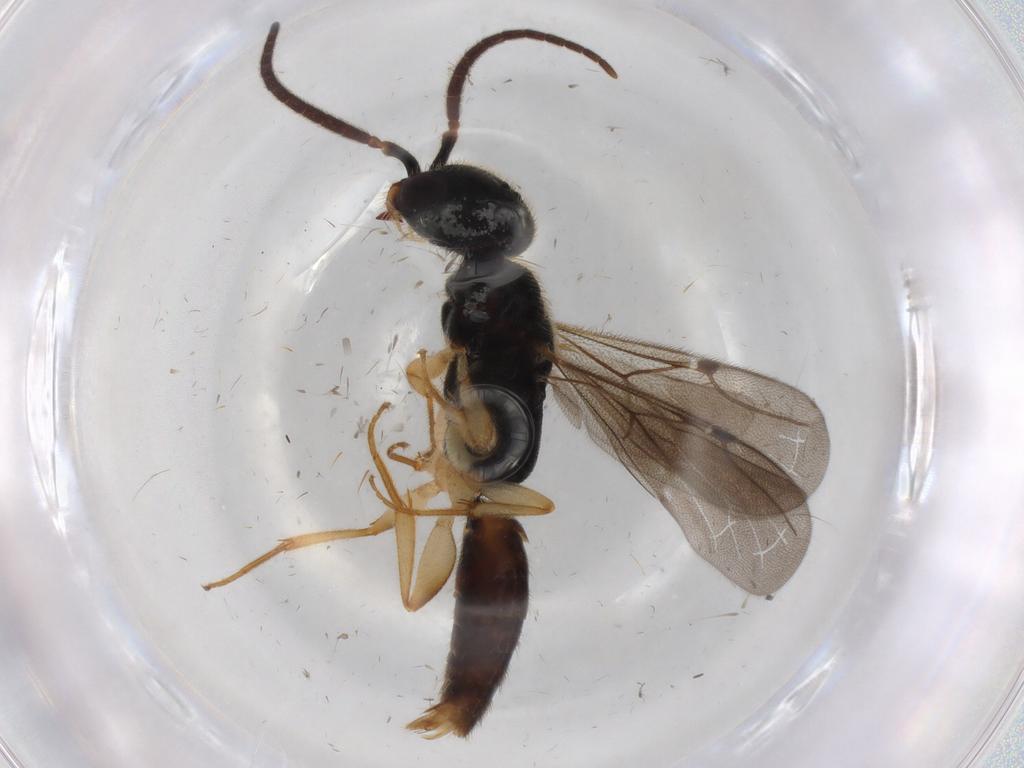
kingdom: Animalia
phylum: Arthropoda
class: Insecta
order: Hymenoptera
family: Bethylidae
